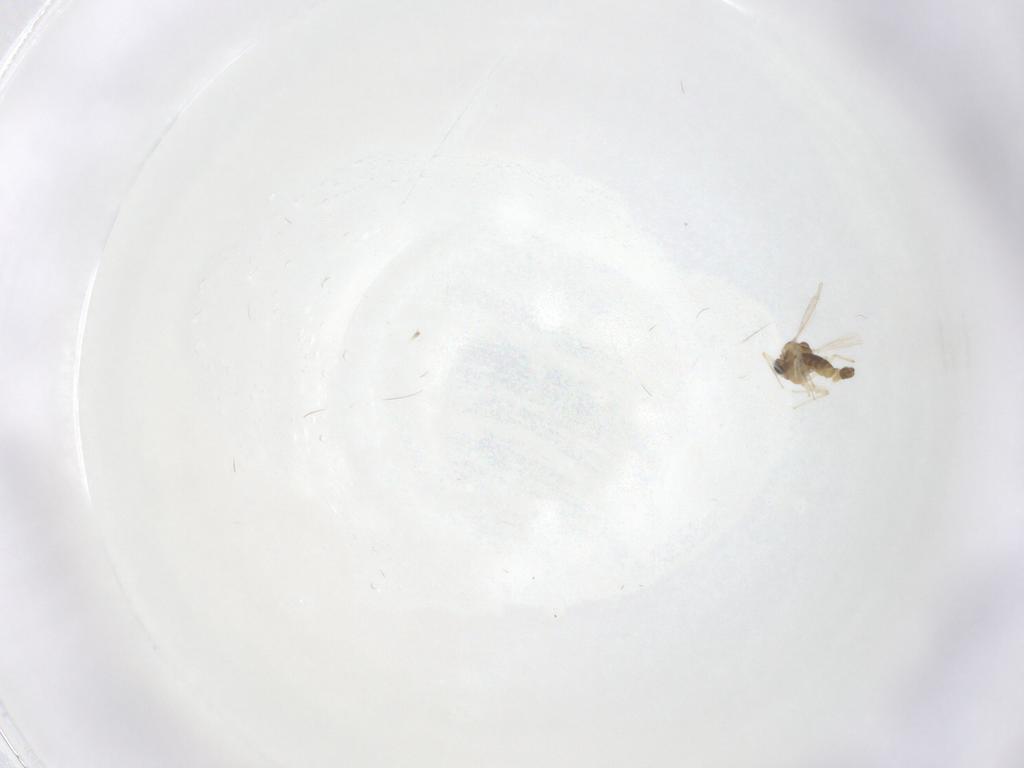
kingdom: Animalia
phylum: Arthropoda
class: Insecta
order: Diptera
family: Chironomidae
